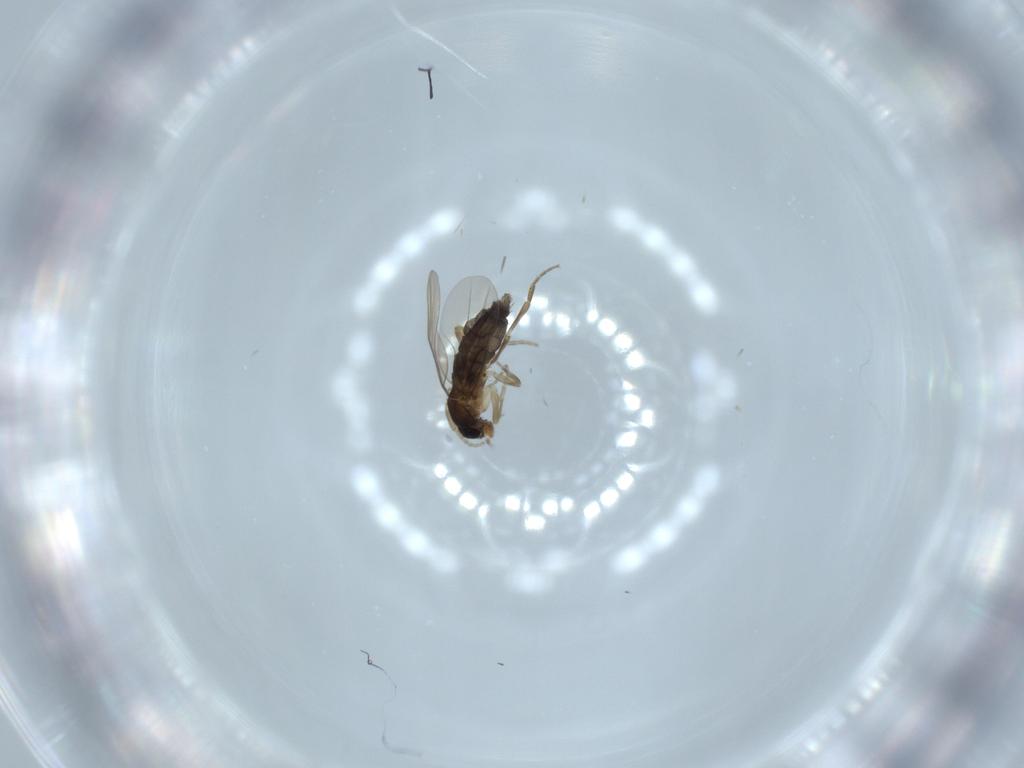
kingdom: Animalia
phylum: Arthropoda
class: Insecta
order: Diptera
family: Phoridae
